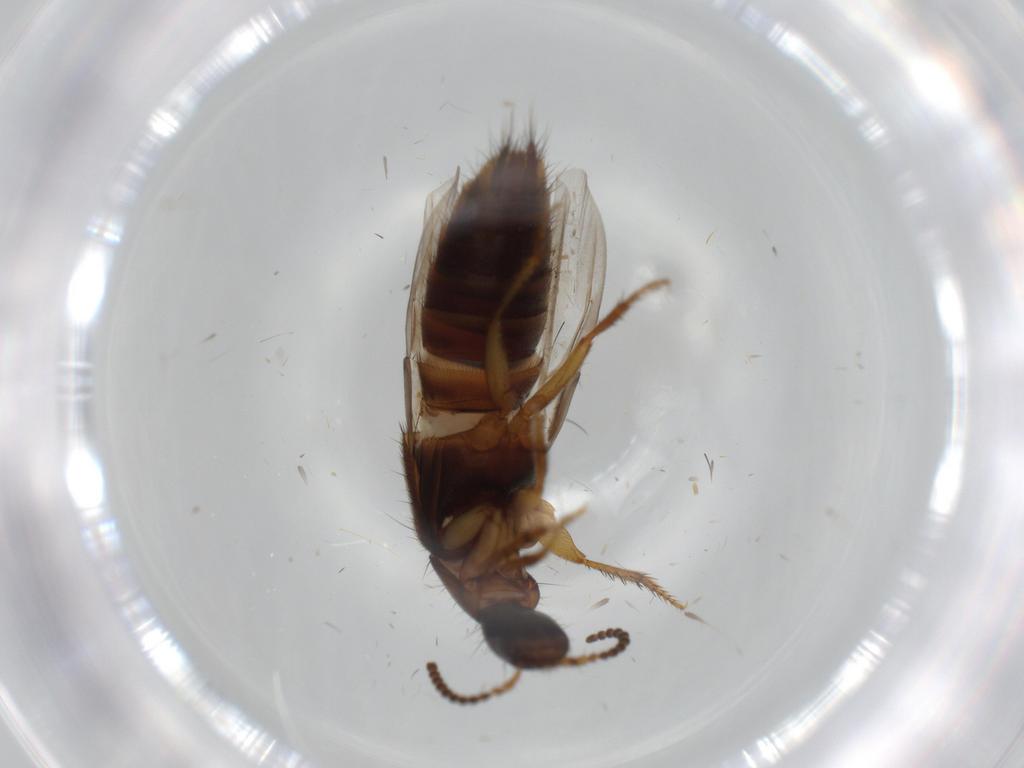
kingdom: Animalia
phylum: Arthropoda
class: Insecta
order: Coleoptera
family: Staphylinidae
